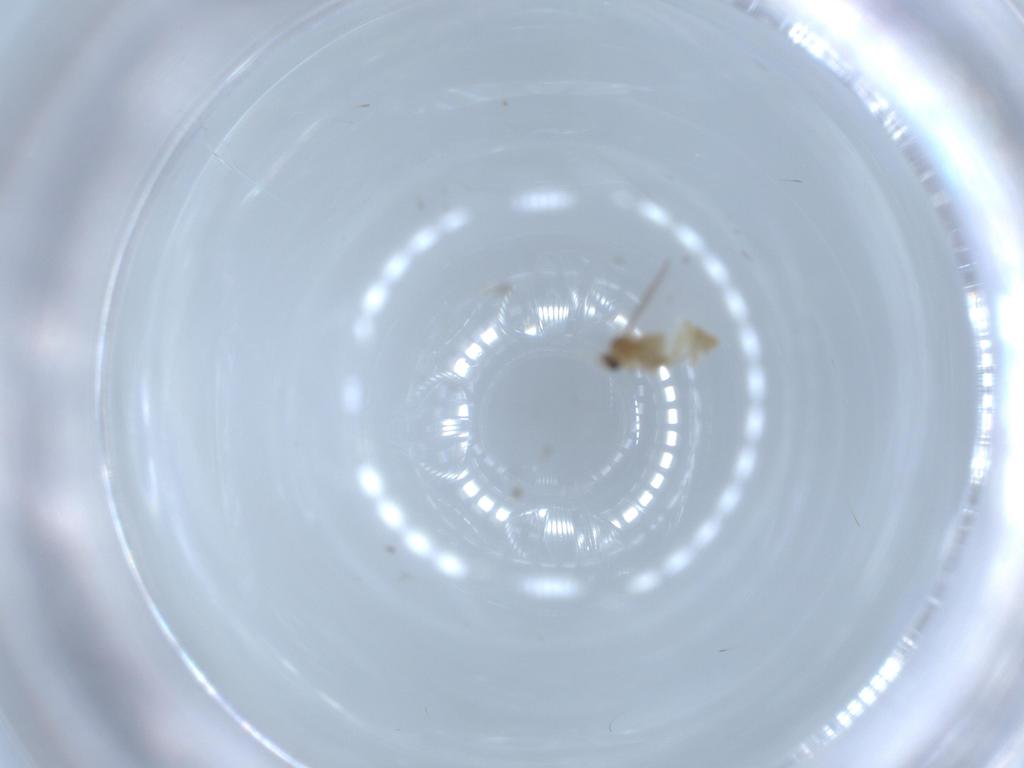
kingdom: Animalia
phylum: Arthropoda
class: Insecta
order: Diptera
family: Cecidomyiidae
